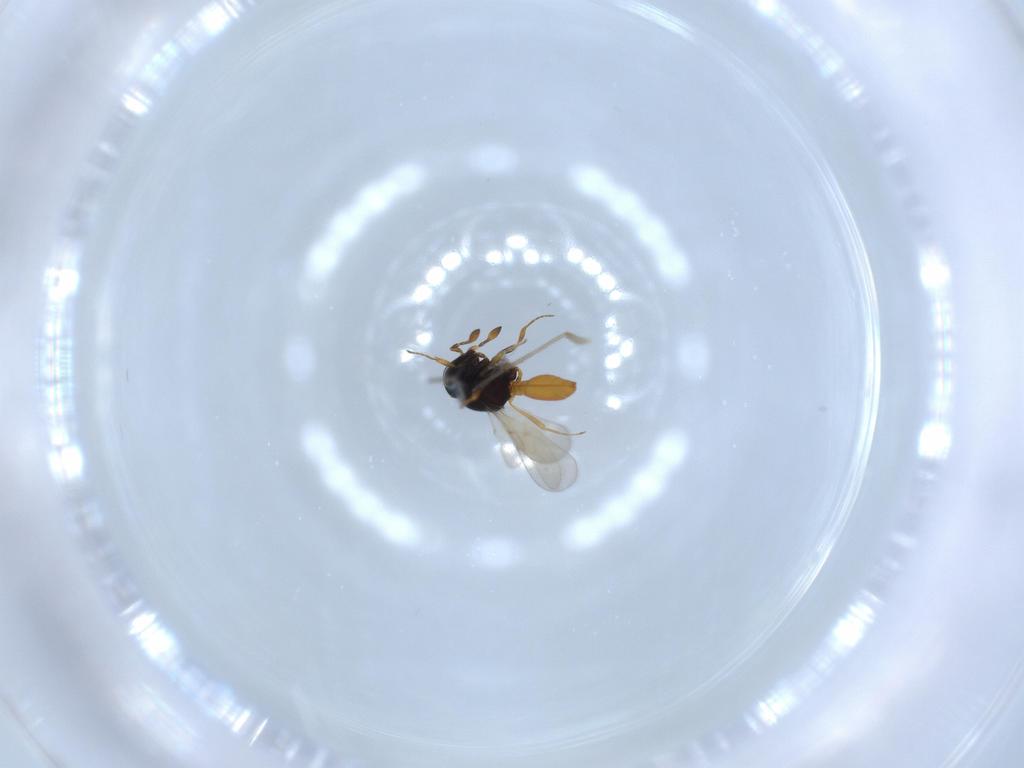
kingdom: Animalia
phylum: Arthropoda
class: Insecta
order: Hymenoptera
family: Scelionidae
